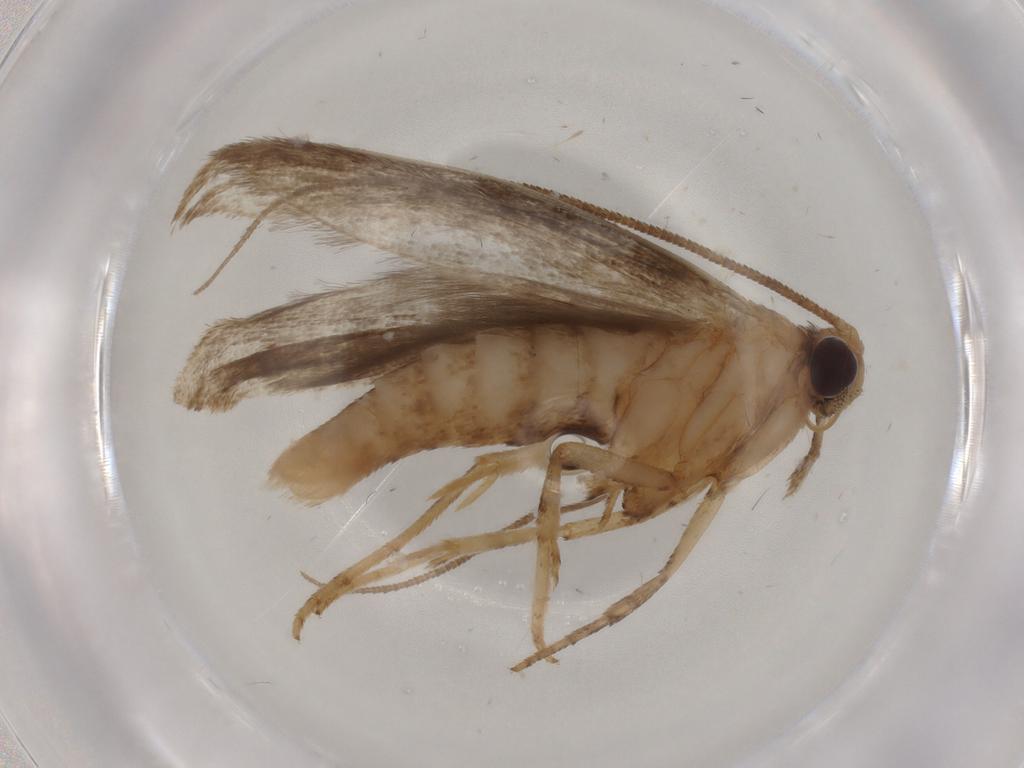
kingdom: Animalia
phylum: Arthropoda
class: Insecta
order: Lepidoptera
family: Yponomeutidae
